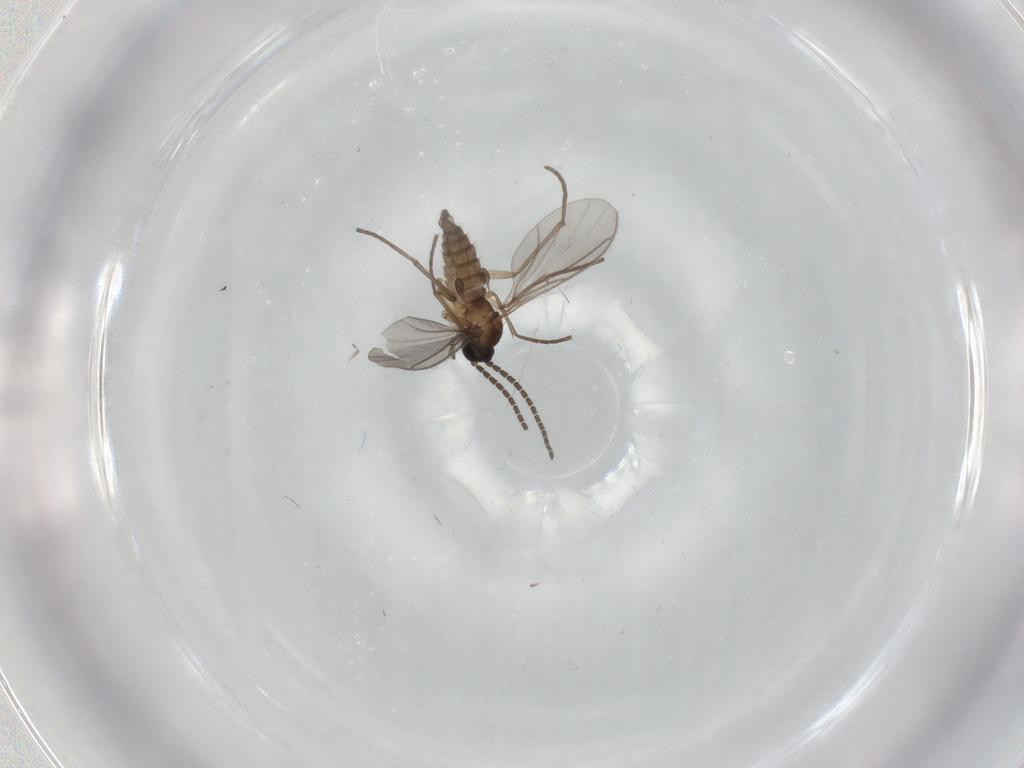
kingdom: Animalia
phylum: Arthropoda
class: Insecta
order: Diptera
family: Sciaridae
